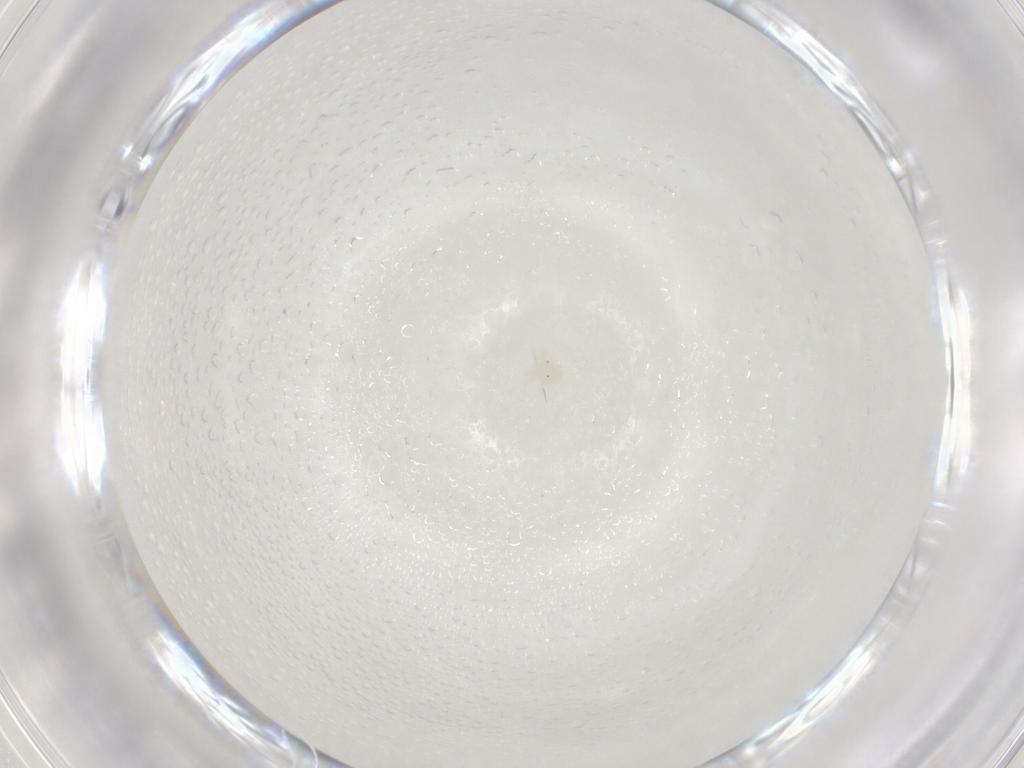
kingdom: Animalia
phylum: Arthropoda
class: Arachnida
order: Trombidiformes
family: Anystidae
